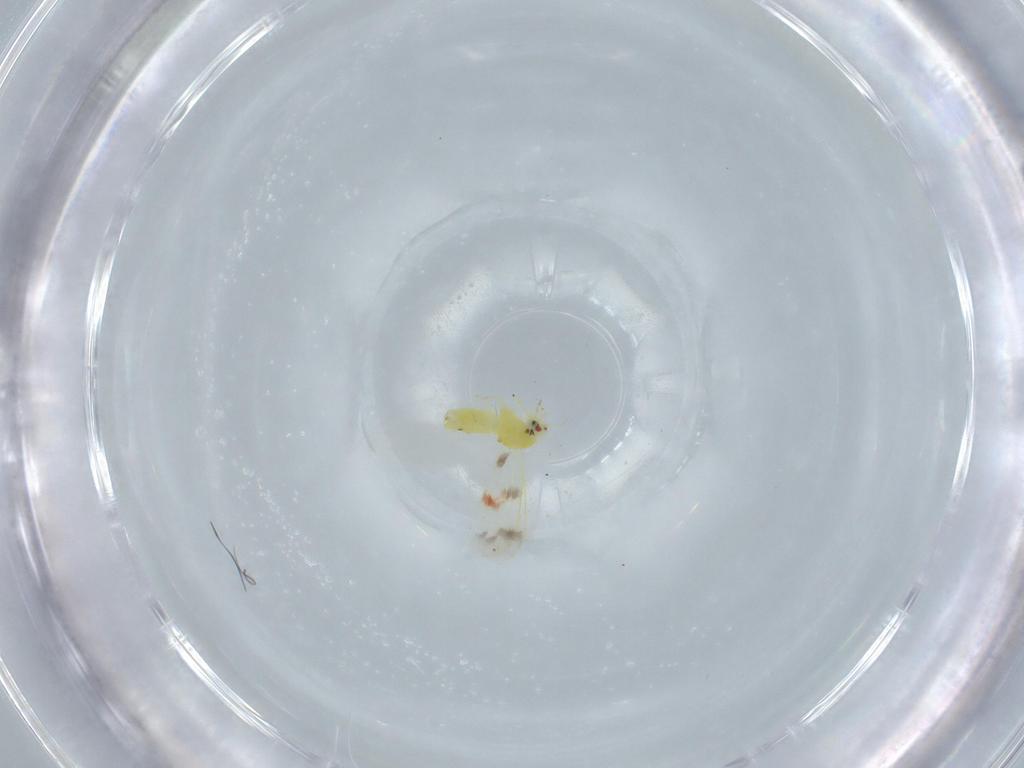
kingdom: Animalia
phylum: Arthropoda
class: Insecta
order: Hemiptera
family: Aleyrodidae
